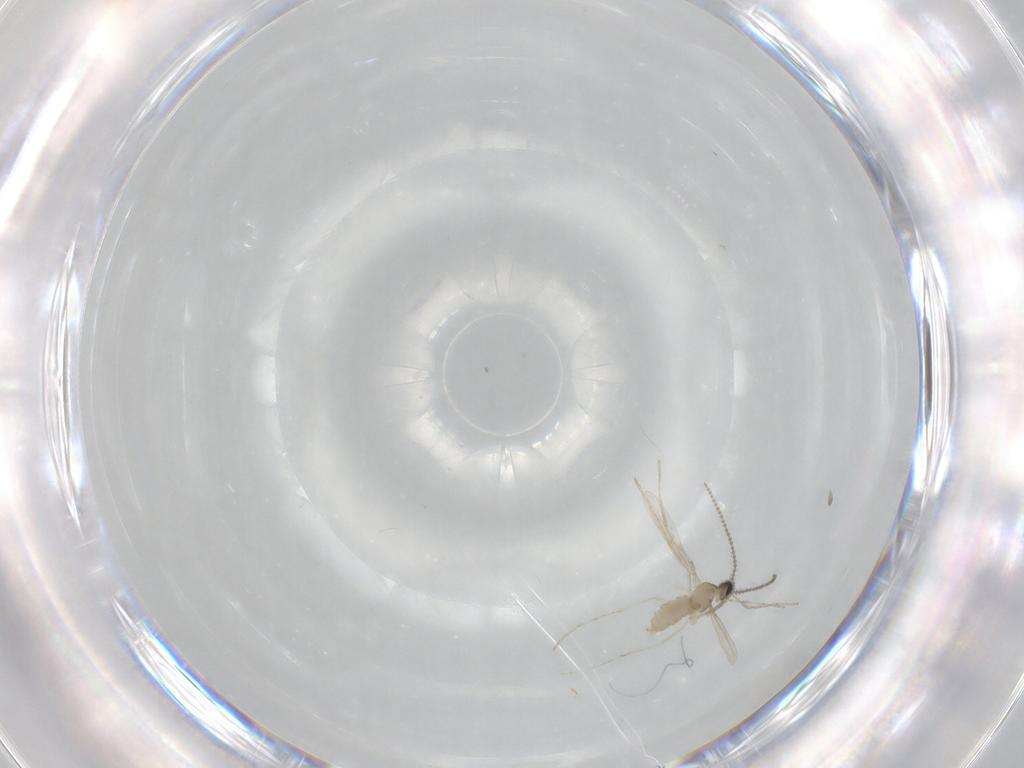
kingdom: Animalia
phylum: Arthropoda
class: Insecta
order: Diptera
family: Cecidomyiidae
